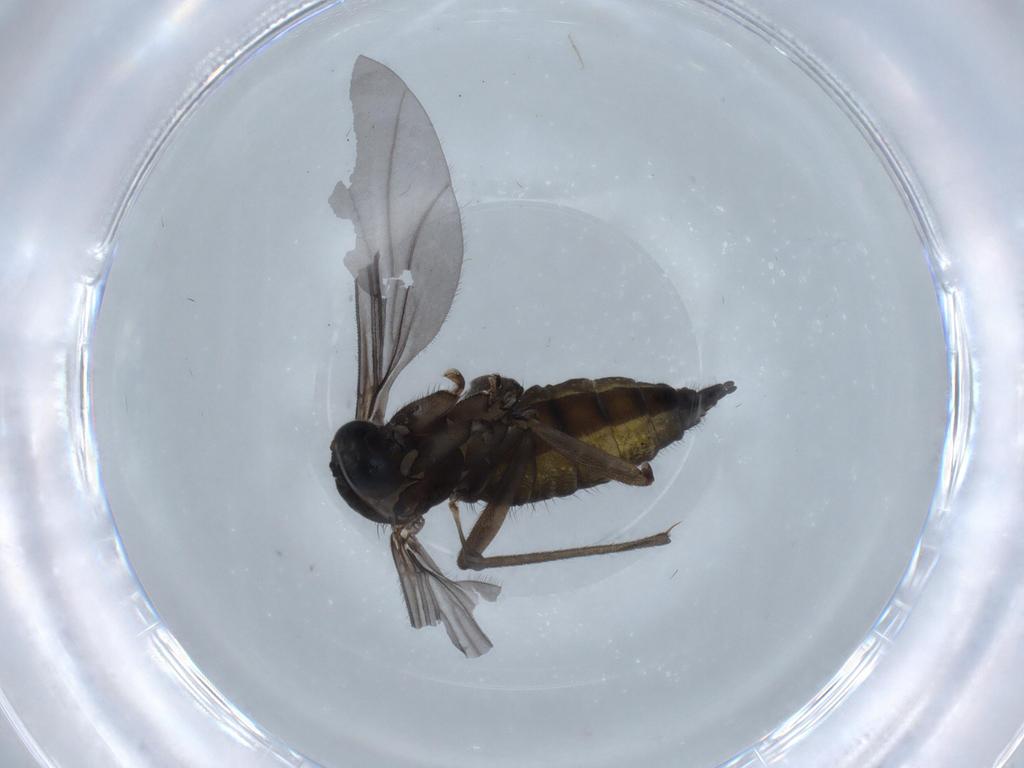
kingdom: Animalia
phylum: Arthropoda
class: Insecta
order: Diptera
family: Sciaridae
